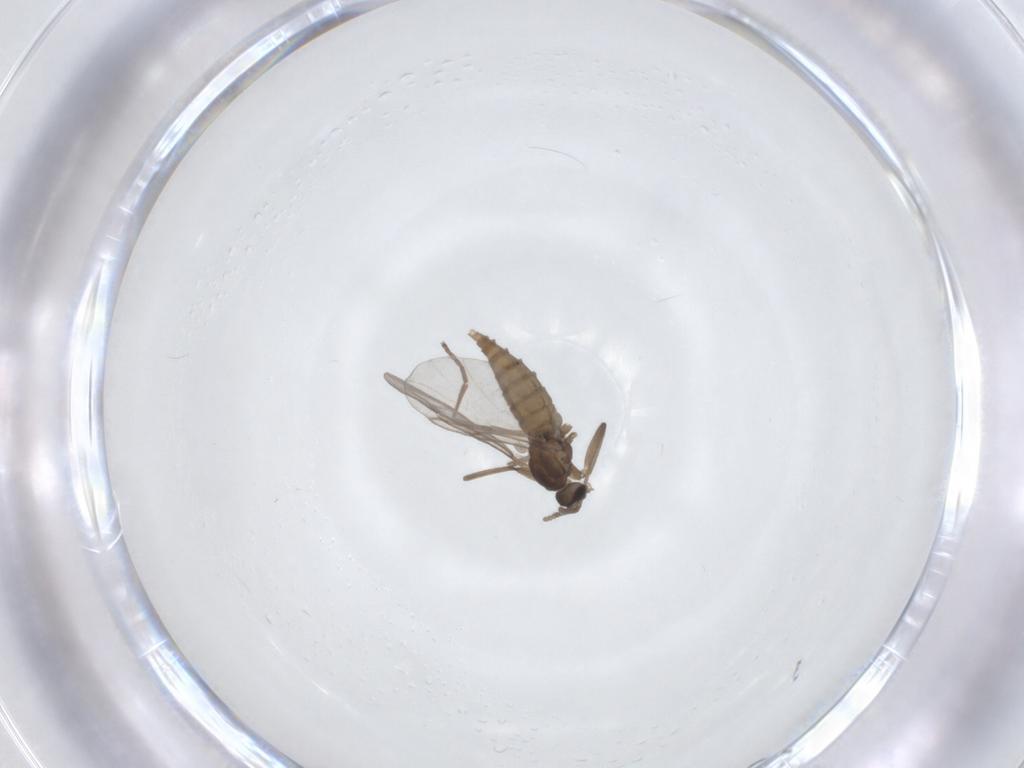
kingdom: Animalia
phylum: Arthropoda
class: Insecta
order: Diptera
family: Cecidomyiidae
